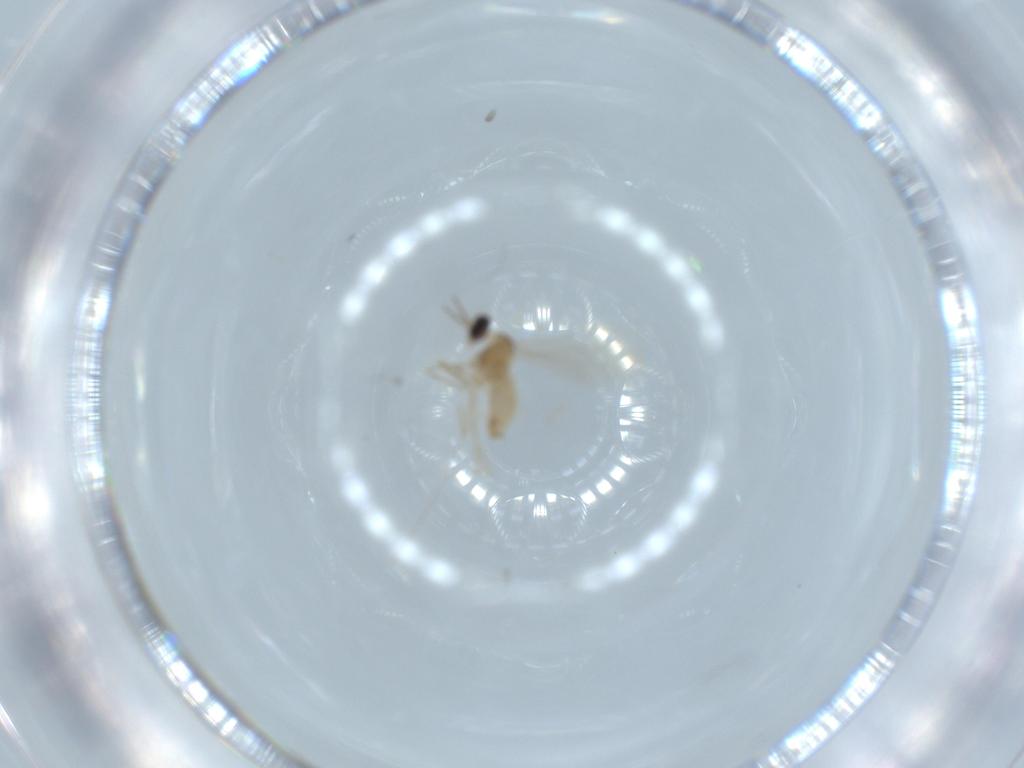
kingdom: Animalia
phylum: Arthropoda
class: Insecta
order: Diptera
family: Cecidomyiidae
